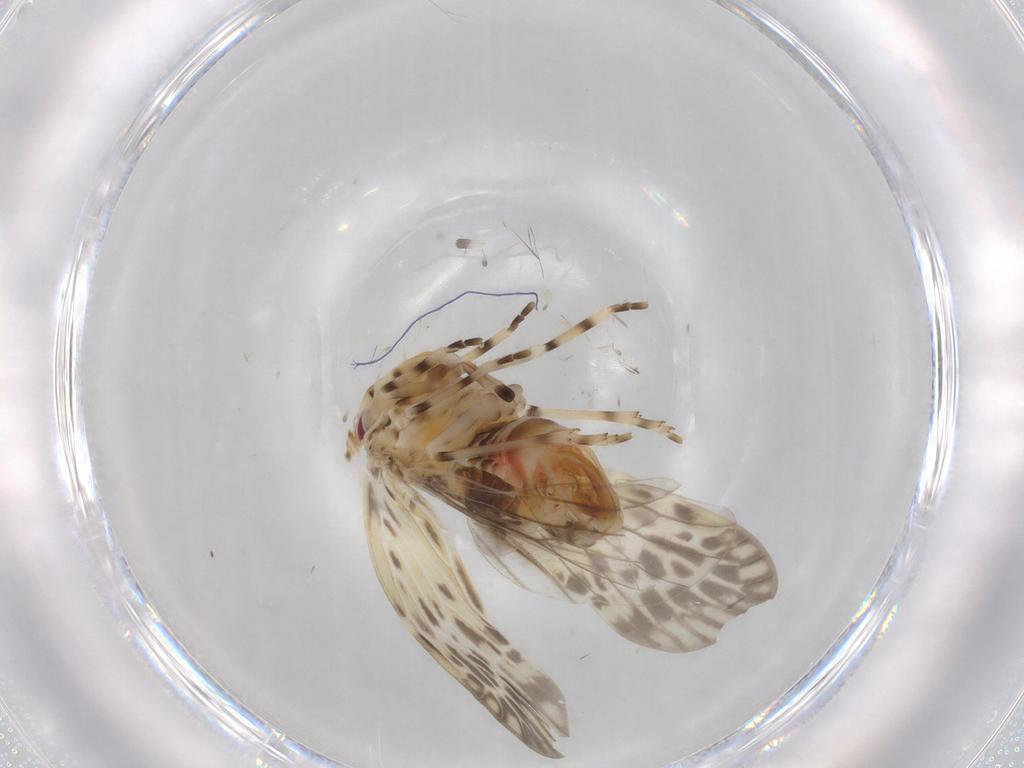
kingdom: Animalia
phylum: Arthropoda
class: Insecta
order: Hemiptera
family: Derbidae
